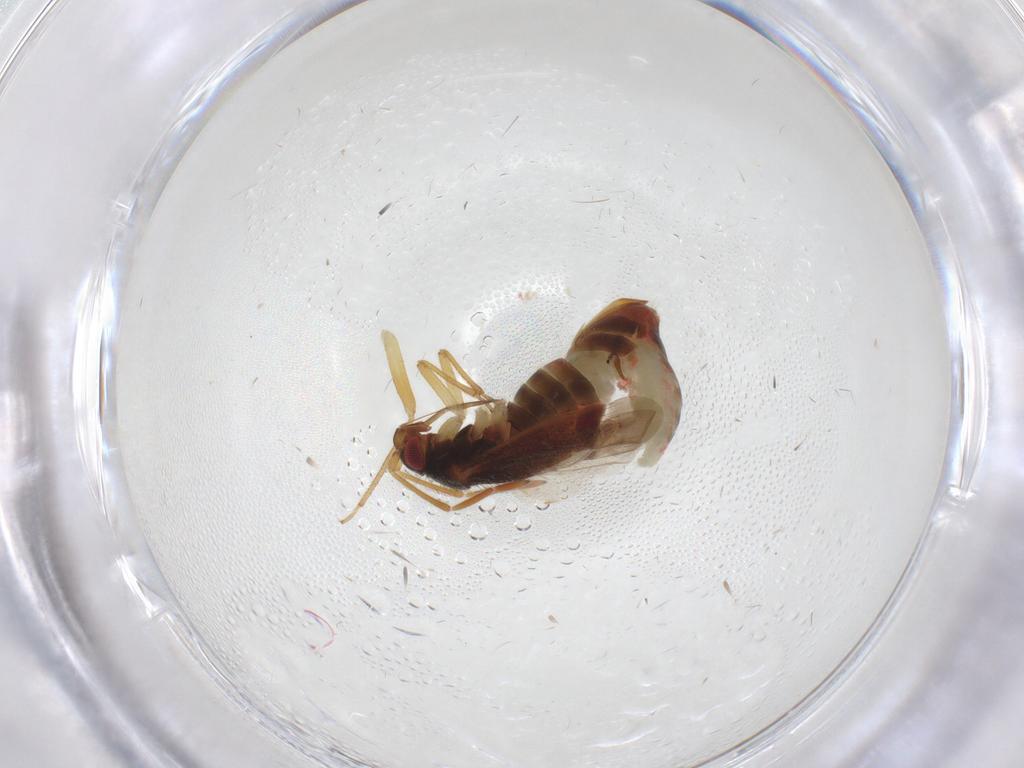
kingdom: Animalia
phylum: Arthropoda
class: Insecta
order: Hemiptera
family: Miridae
